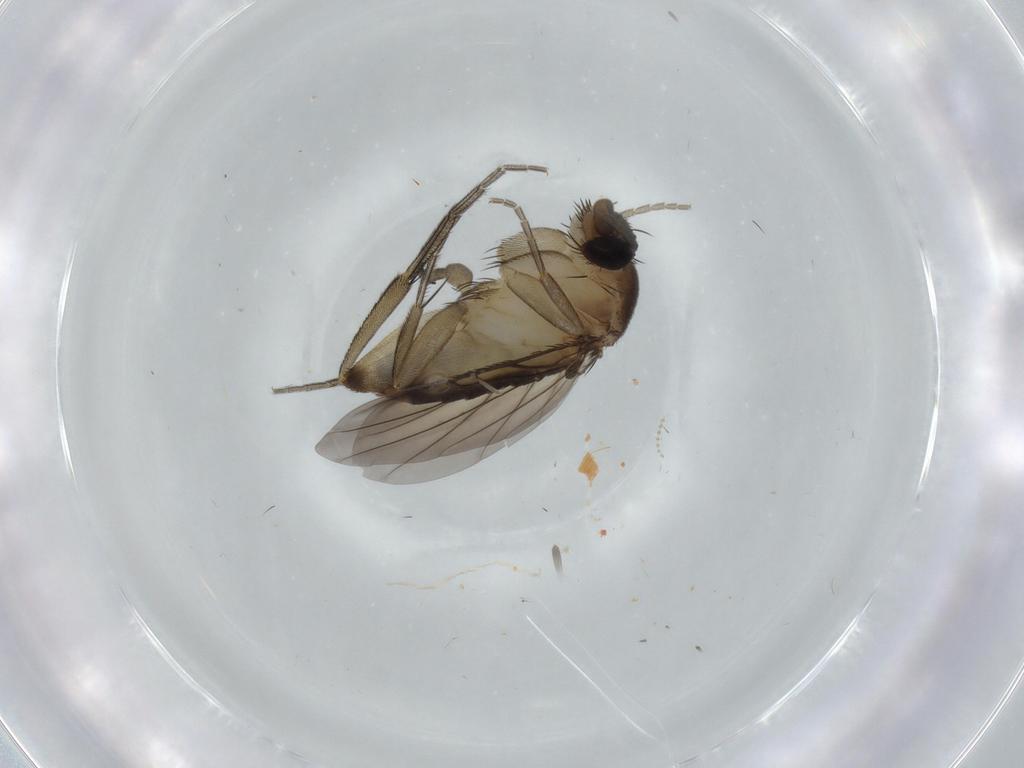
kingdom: Animalia
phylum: Arthropoda
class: Insecta
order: Diptera
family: Phoridae
